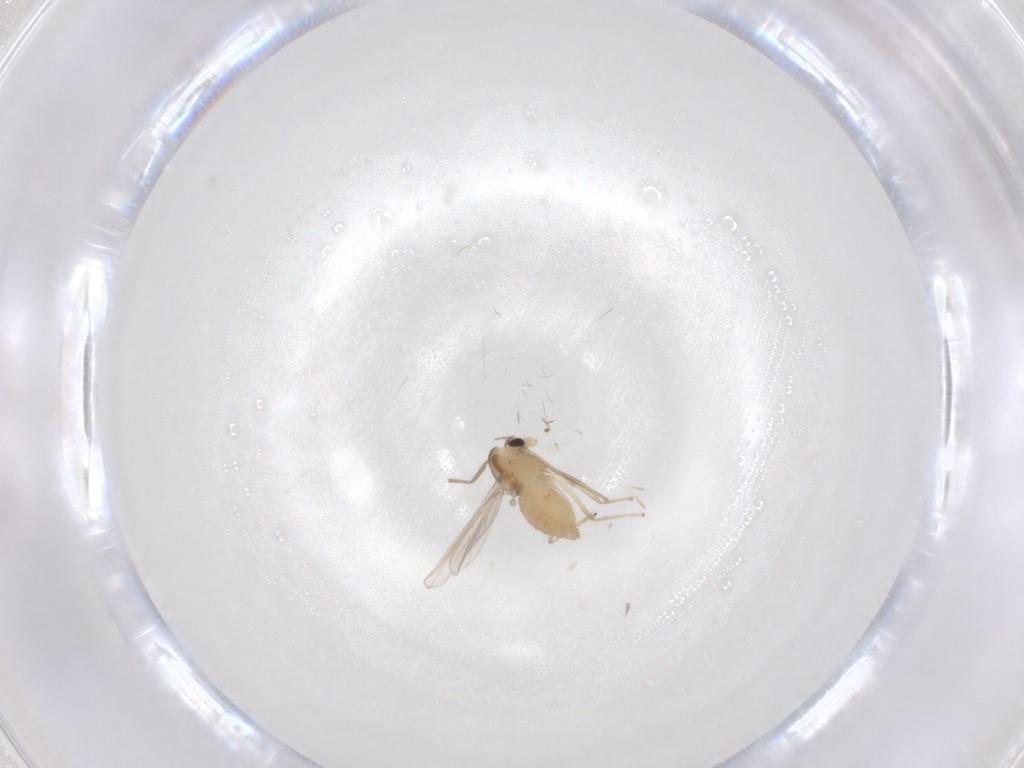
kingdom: Animalia
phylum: Arthropoda
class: Insecta
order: Diptera
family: Chironomidae
